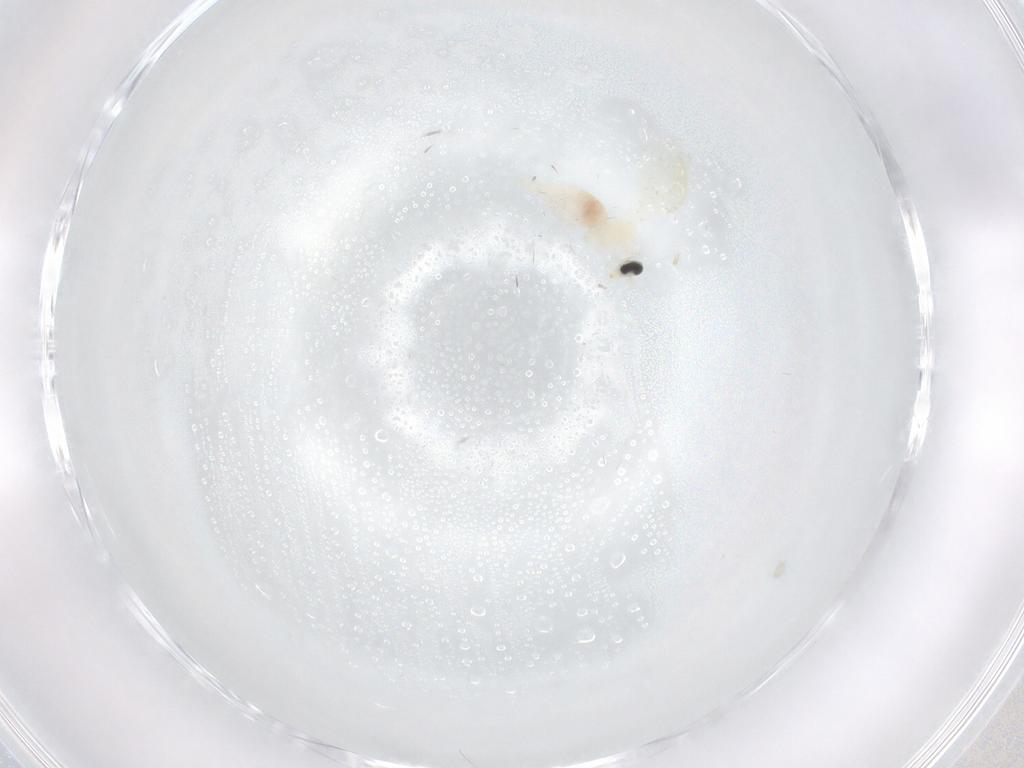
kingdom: Animalia
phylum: Arthropoda
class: Insecta
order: Diptera
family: Cecidomyiidae
